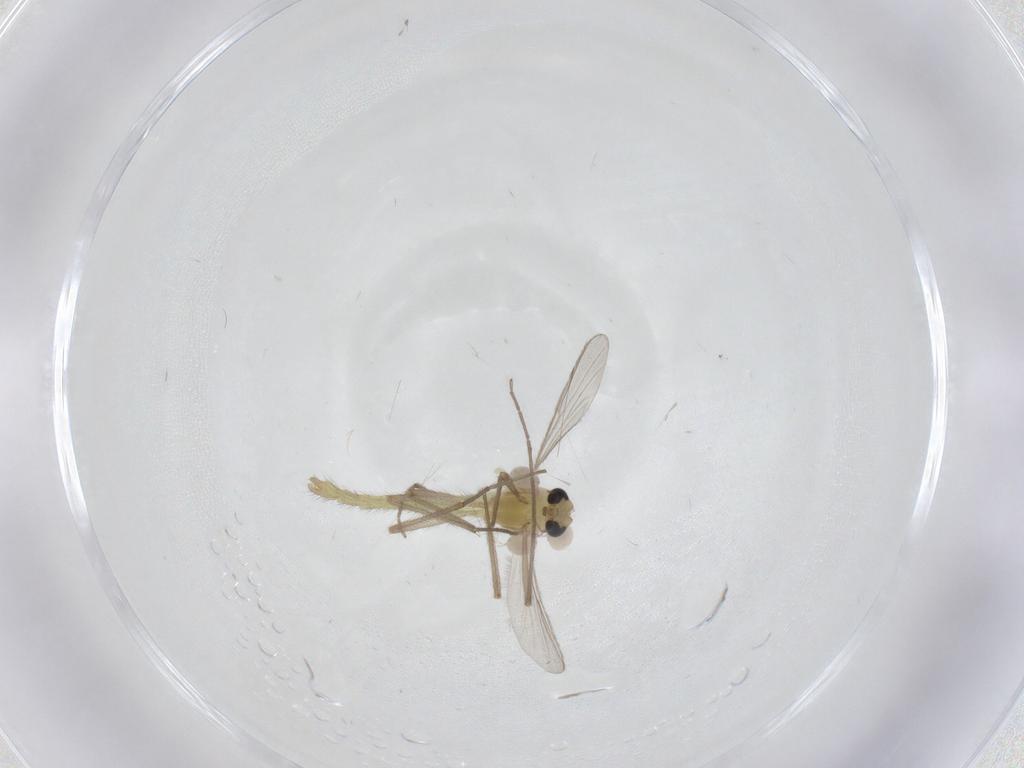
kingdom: Animalia
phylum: Arthropoda
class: Insecta
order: Diptera
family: Chironomidae
